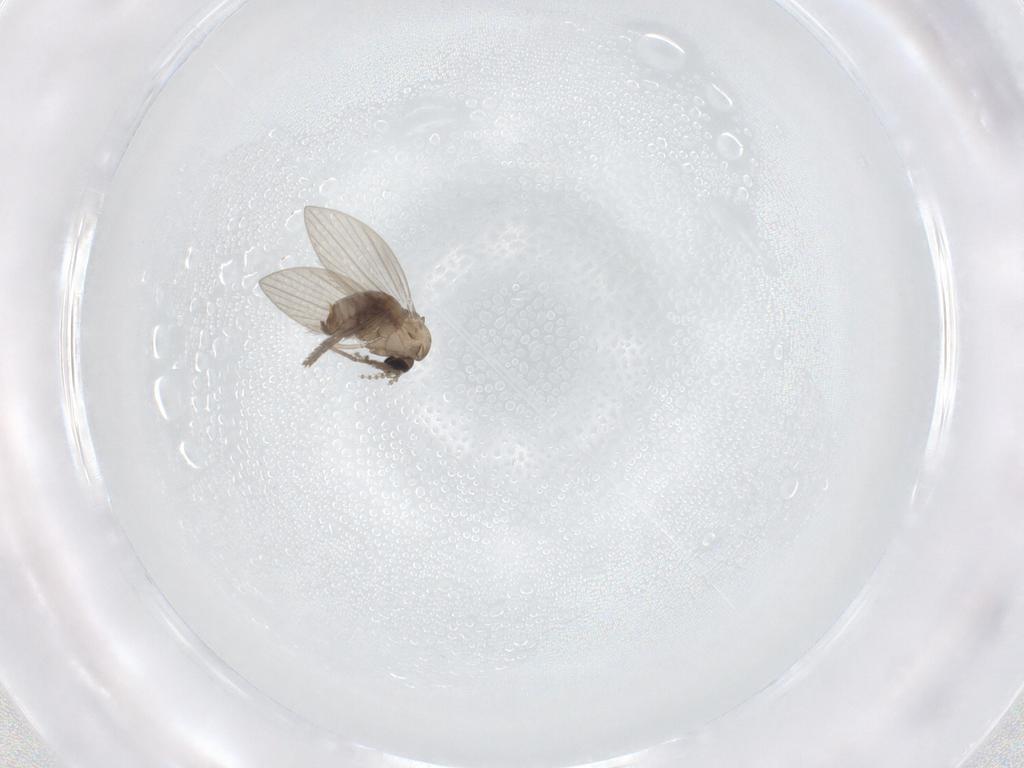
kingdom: Animalia
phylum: Arthropoda
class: Insecta
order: Diptera
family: Psychodidae
